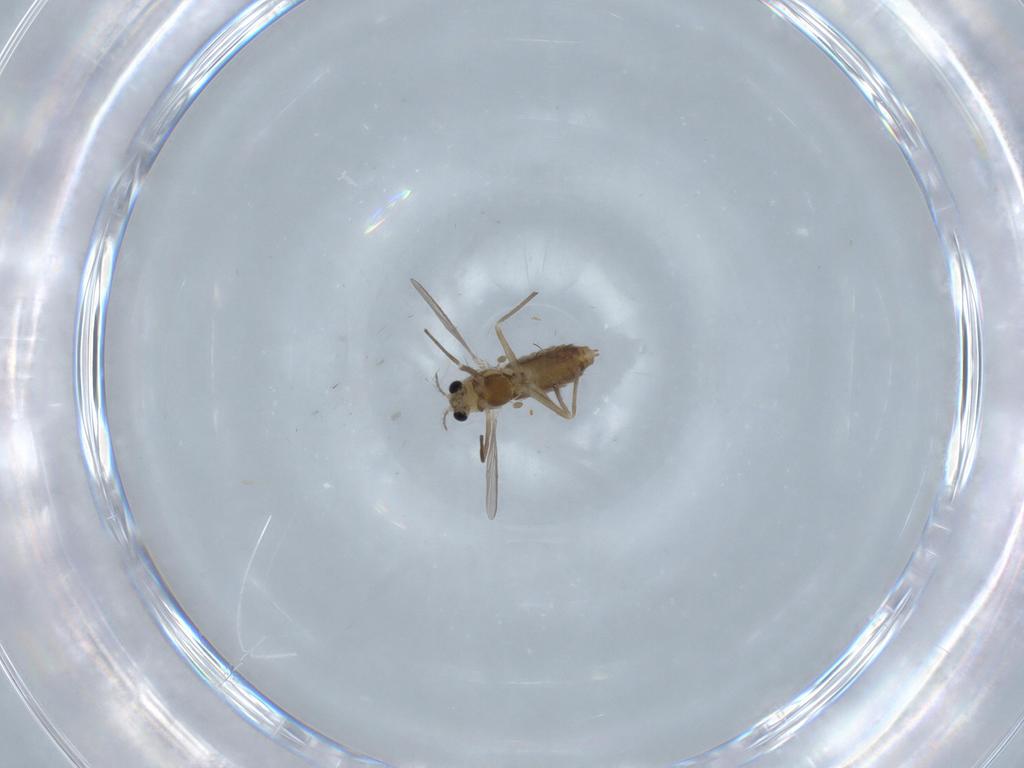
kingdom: Animalia
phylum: Arthropoda
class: Insecta
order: Diptera
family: Chironomidae
